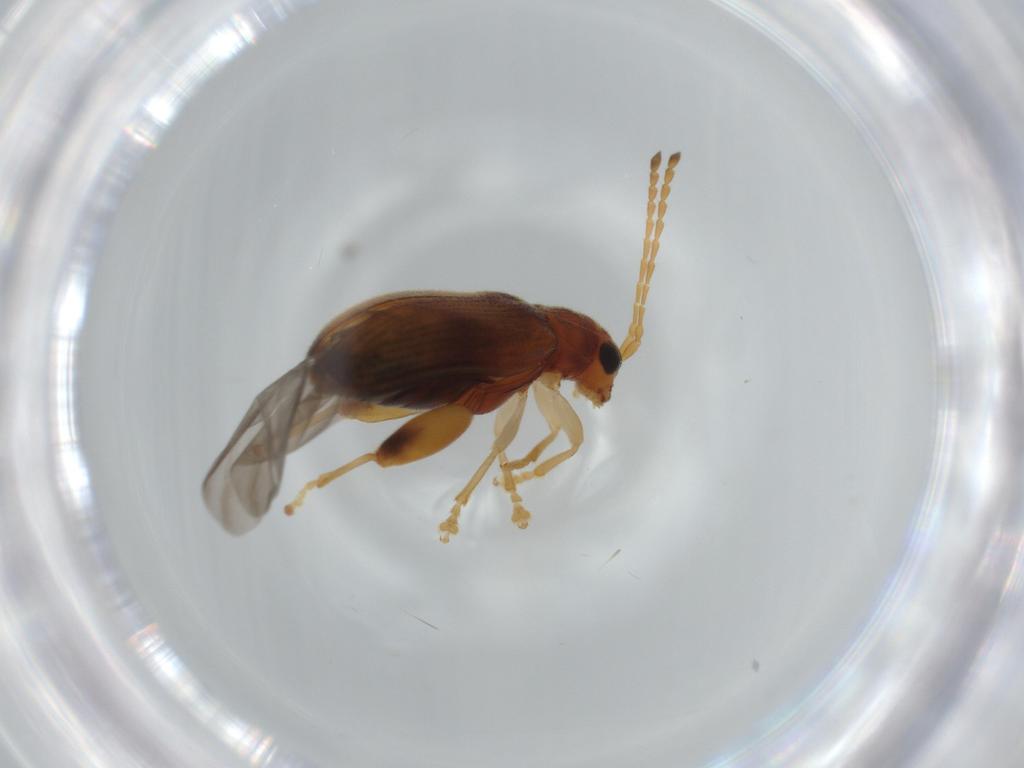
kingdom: Animalia
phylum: Arthropoda
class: Insecta
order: Coleoptera
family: Chrysomelidae
